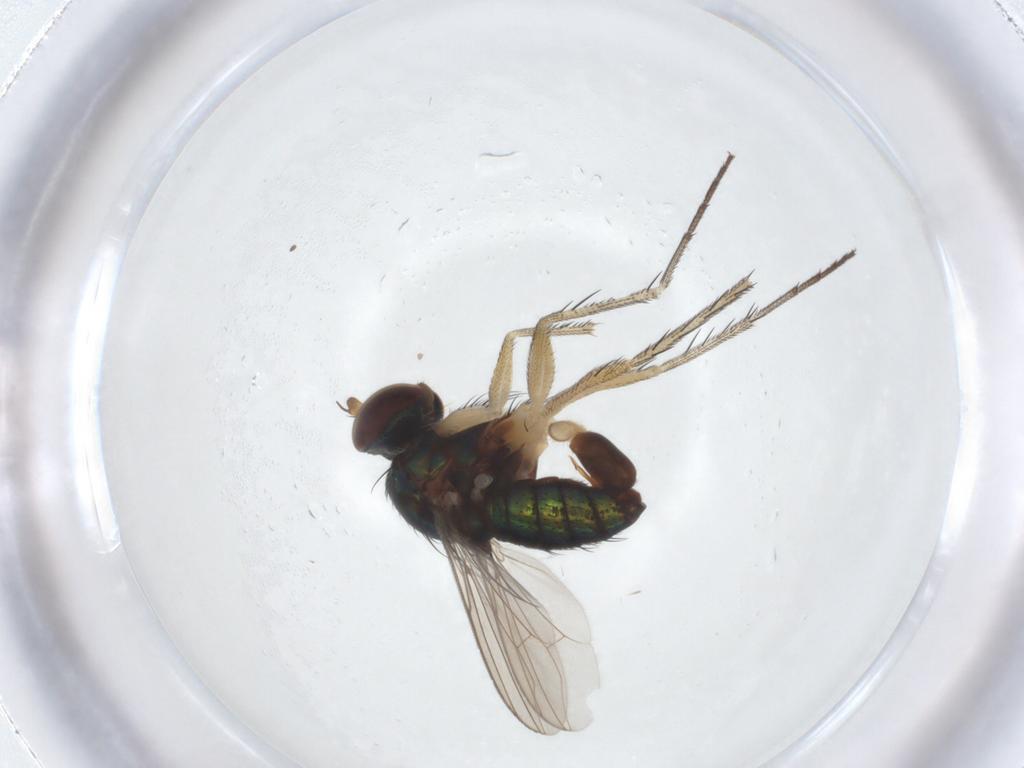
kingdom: Animalia
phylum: Arthropoda
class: Insecta
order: Diptera
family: Dolichopodidae
